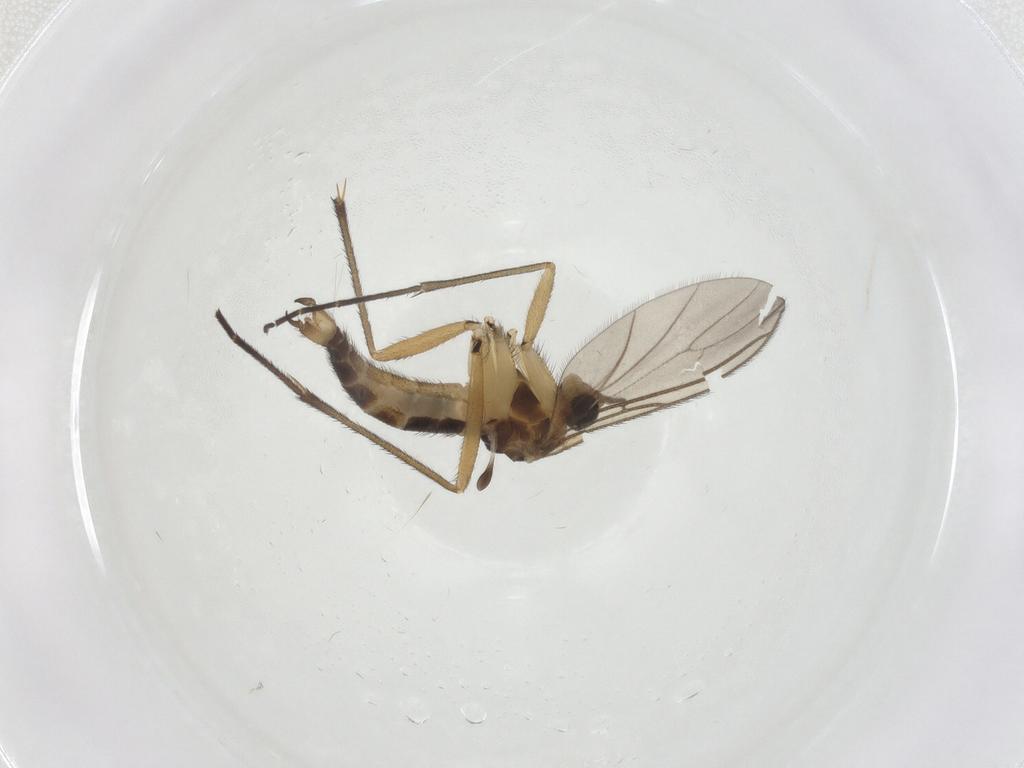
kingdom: Animalia
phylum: Arthropoda
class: Insecta
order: Diptera
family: Sciaridae
